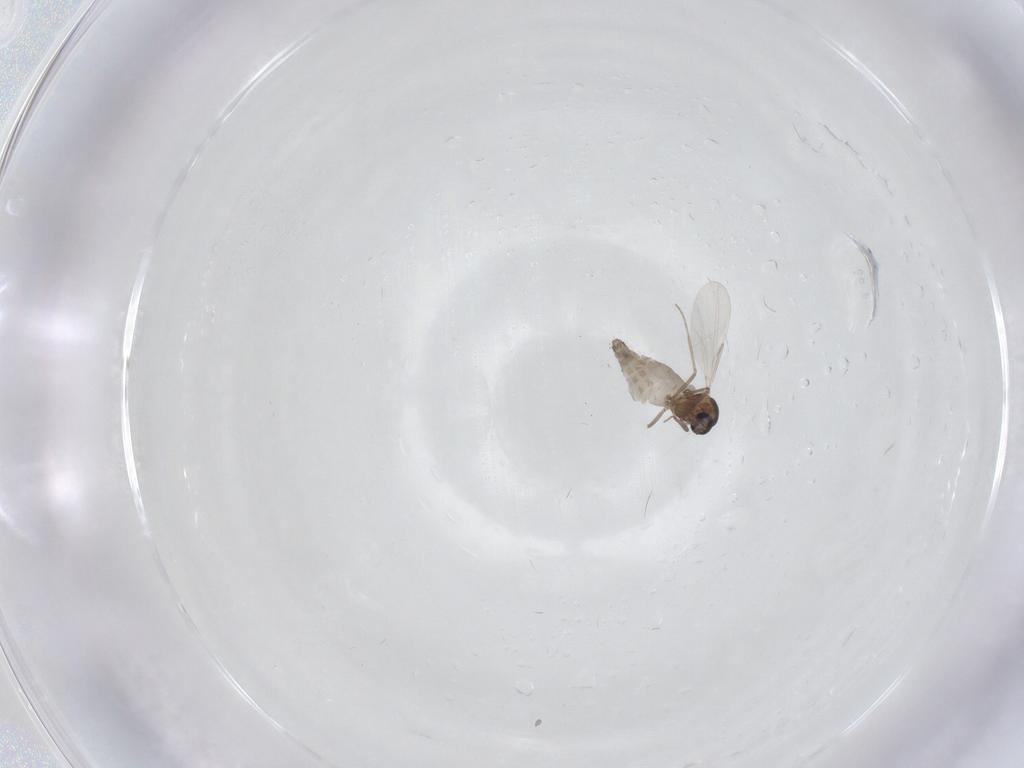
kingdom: Animalia
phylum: Arthropoda
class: Insecta
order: Diptera
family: Ceratopogonidae
